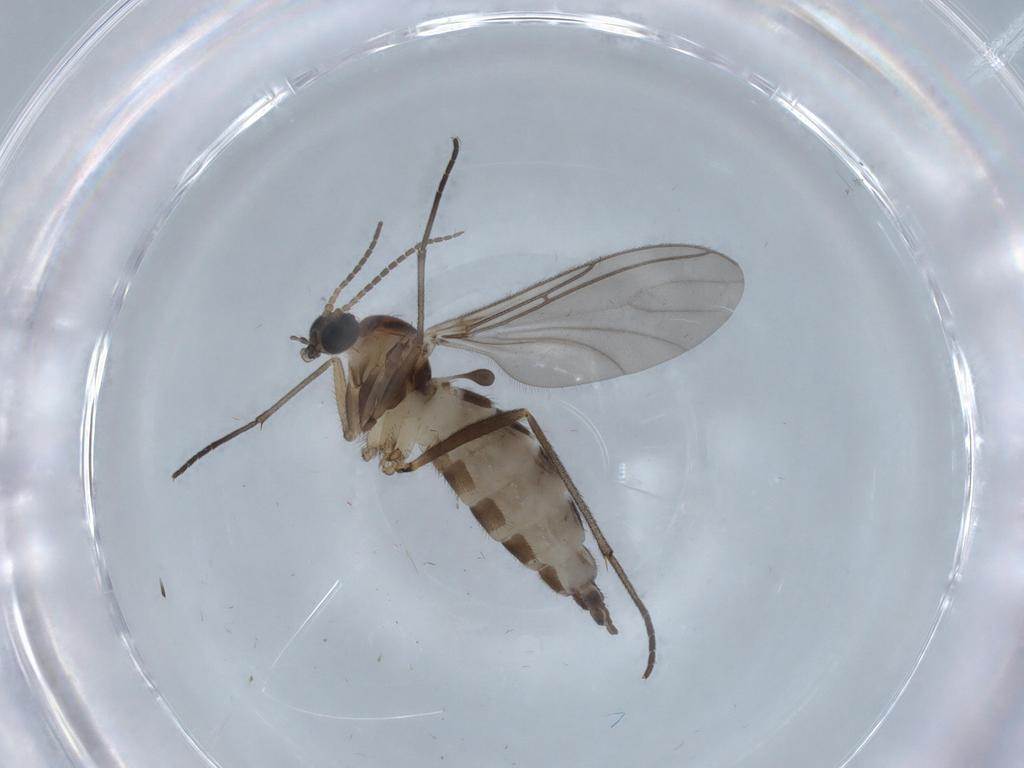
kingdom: Animalia
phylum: Arthropoda
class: Insecta
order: Diptera
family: Sciaridae
